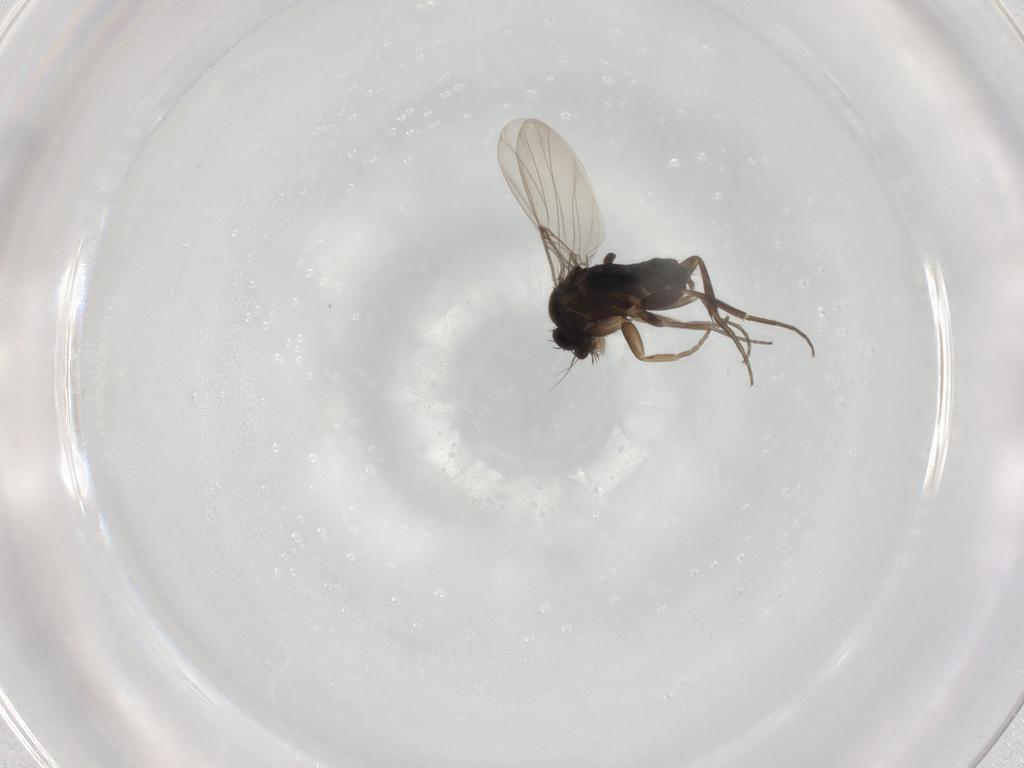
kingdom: Animalia
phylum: Arthropoda
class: Insecta
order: Diptera
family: Phoridae
